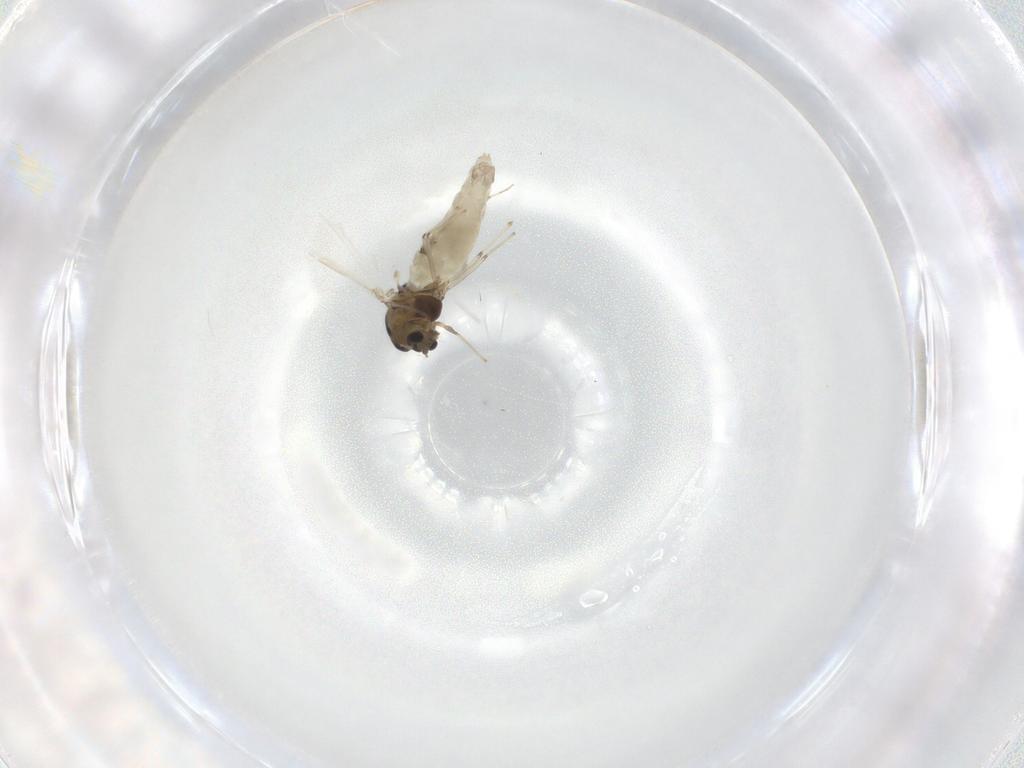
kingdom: Animalia
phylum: Arthropoda
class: Insecta
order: Diptera
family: Chironomidae
